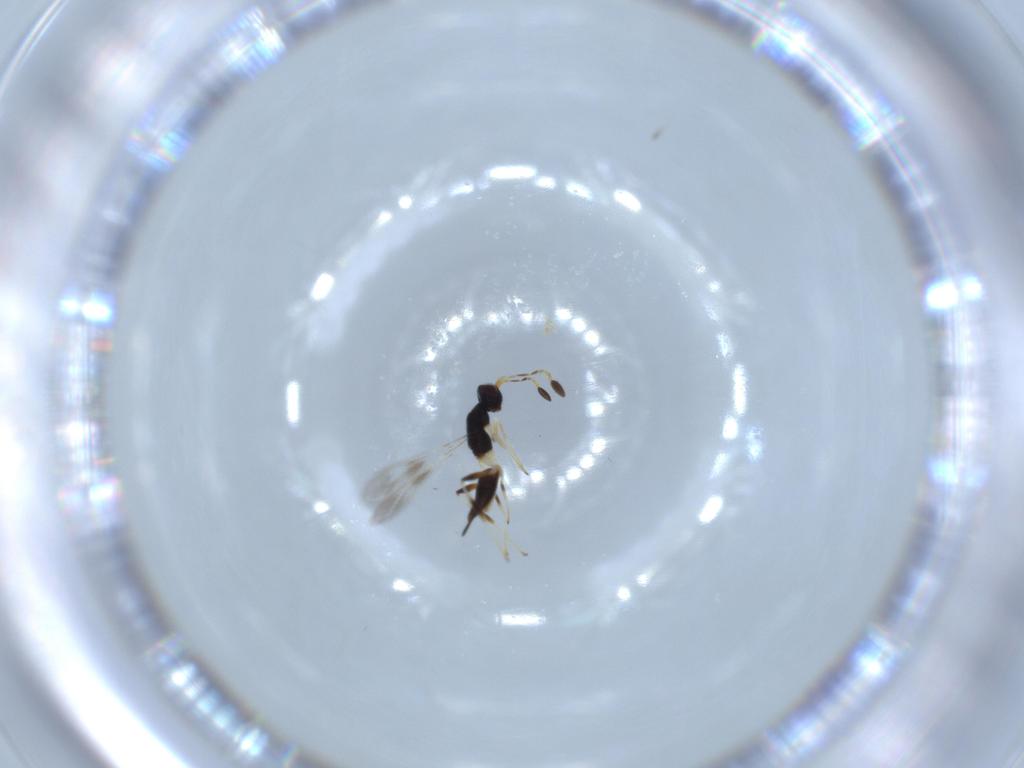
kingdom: Animalia
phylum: Arthropoda
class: Insecta
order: Hymenoptera
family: Mymaridae
